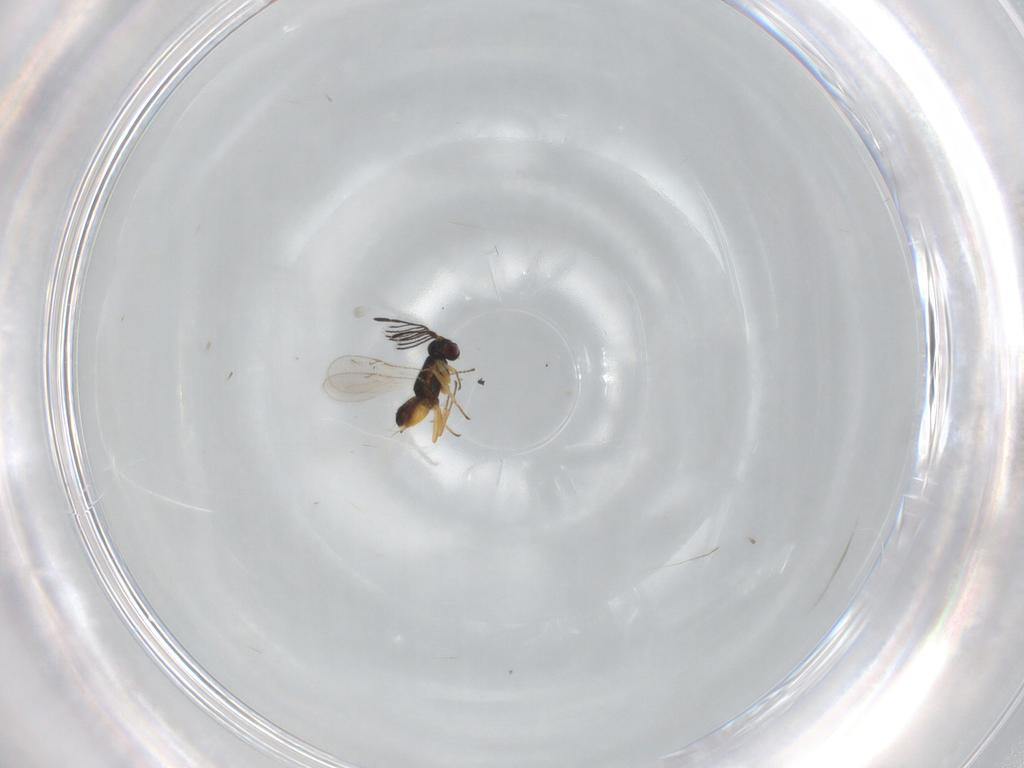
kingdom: Animalia
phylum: Arthropoda
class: Insecta
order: Hymenoptera
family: Encyrtidae
